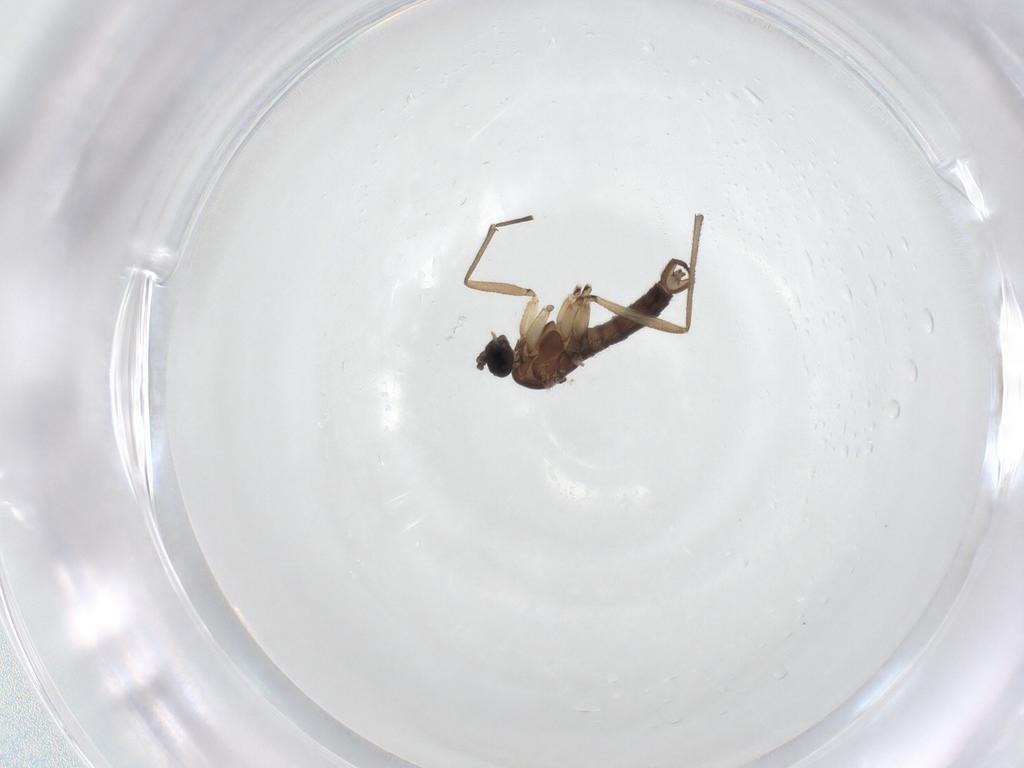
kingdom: Animalia
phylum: Arthropoda
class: Insecta
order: Diptera
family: Sciaridae
